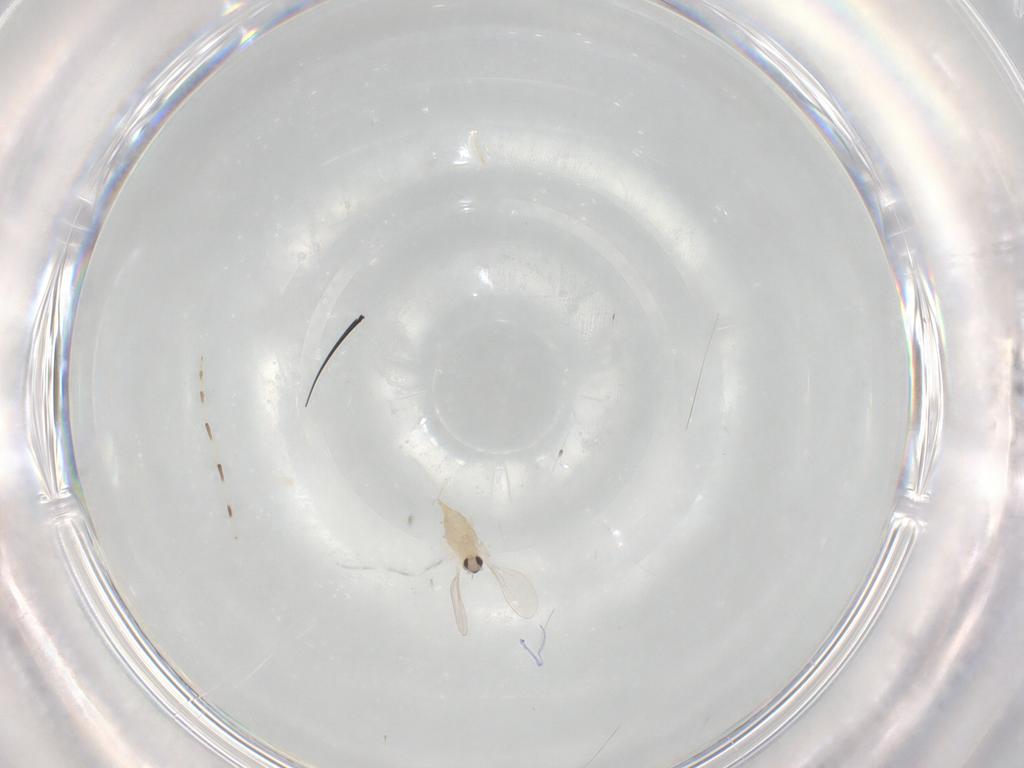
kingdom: Animalia
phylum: Arthropoda
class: Insecta
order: Diptera
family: Cecidomyiidae
